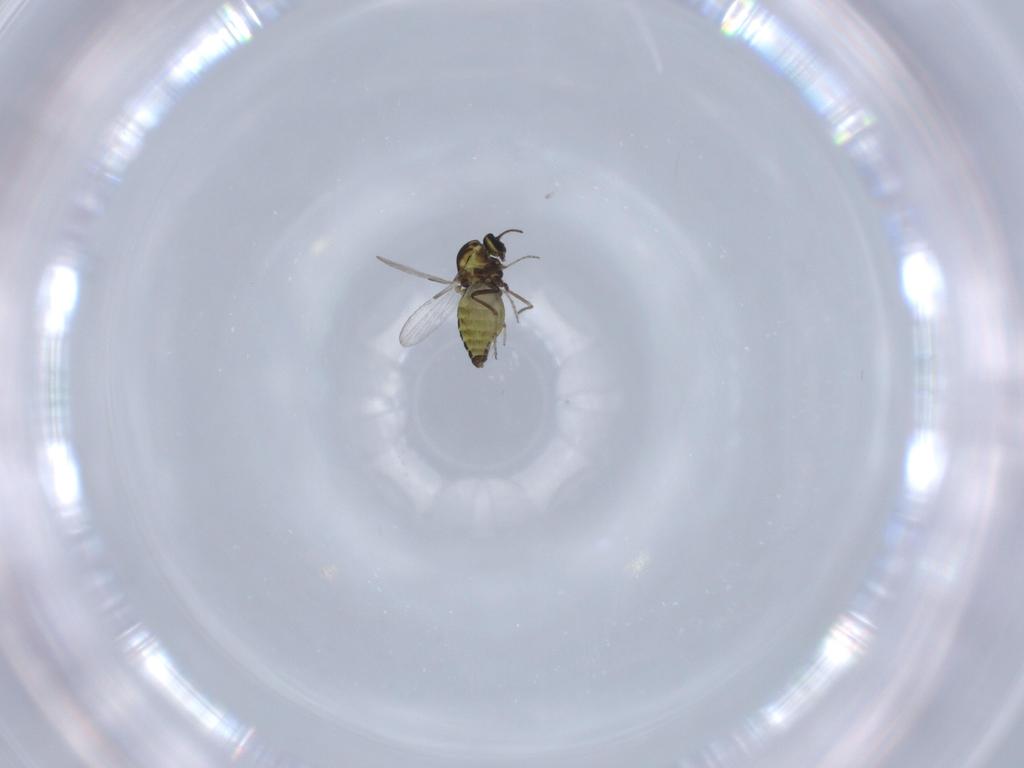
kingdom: Animalia
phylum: Arthropoda
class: Insecta
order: Diptera
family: Ceratopogonidae
